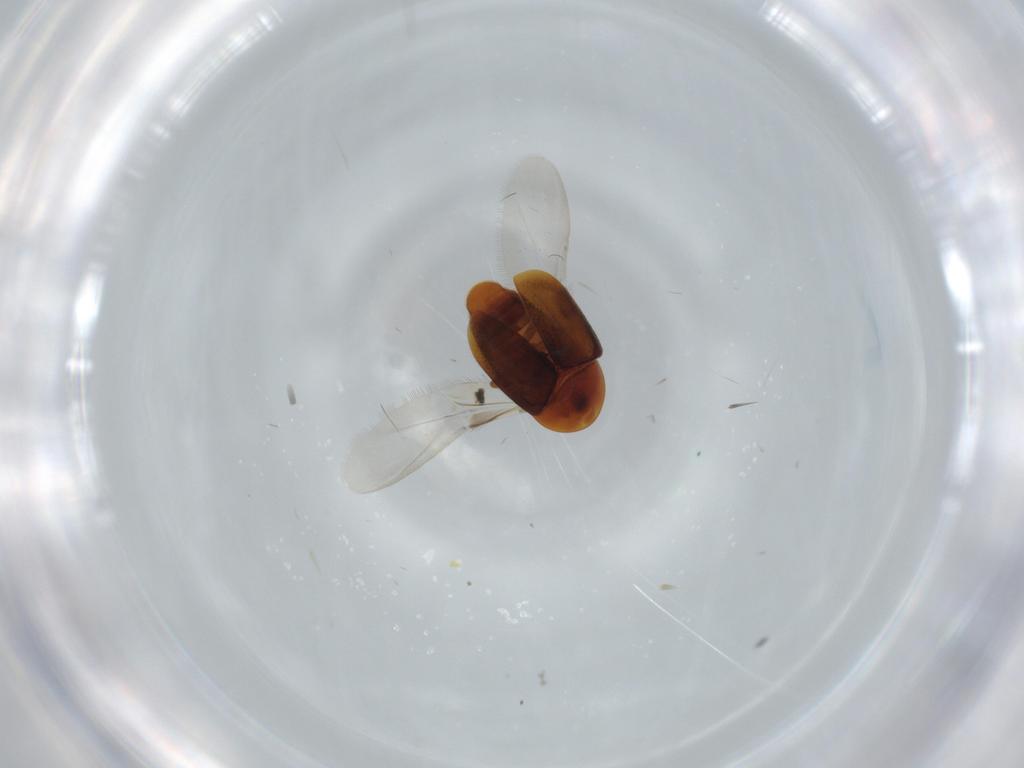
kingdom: Animalia
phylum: Arthropoda
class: Insecta
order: Coleoptera
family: Corylophidae
